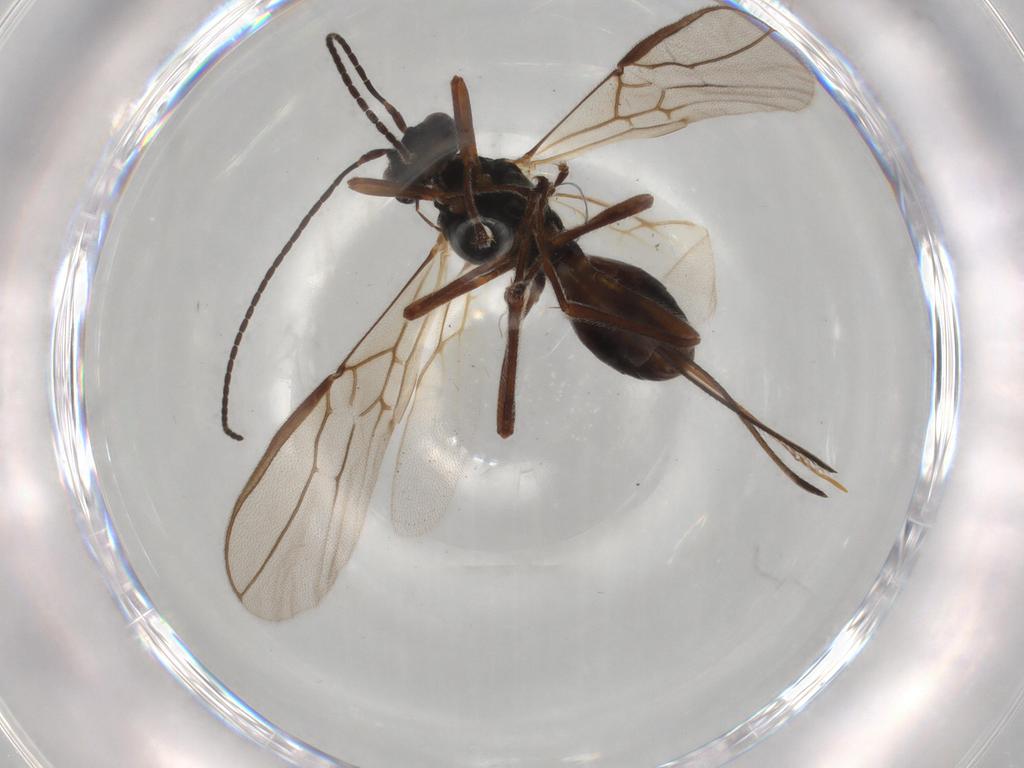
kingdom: Animalia
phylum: Arthropoda
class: Insecta
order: Hymenoptera
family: Braconidae
